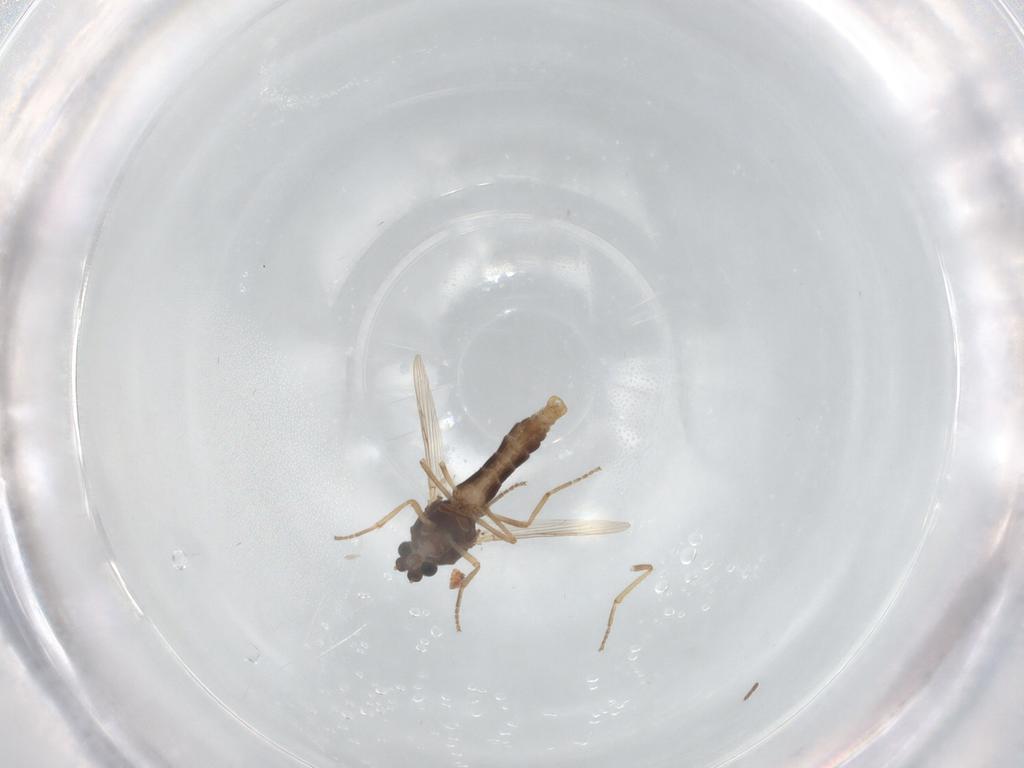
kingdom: Animalia
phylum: Arthropoda
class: Insecta
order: Diptera
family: Ceratopogonidae
